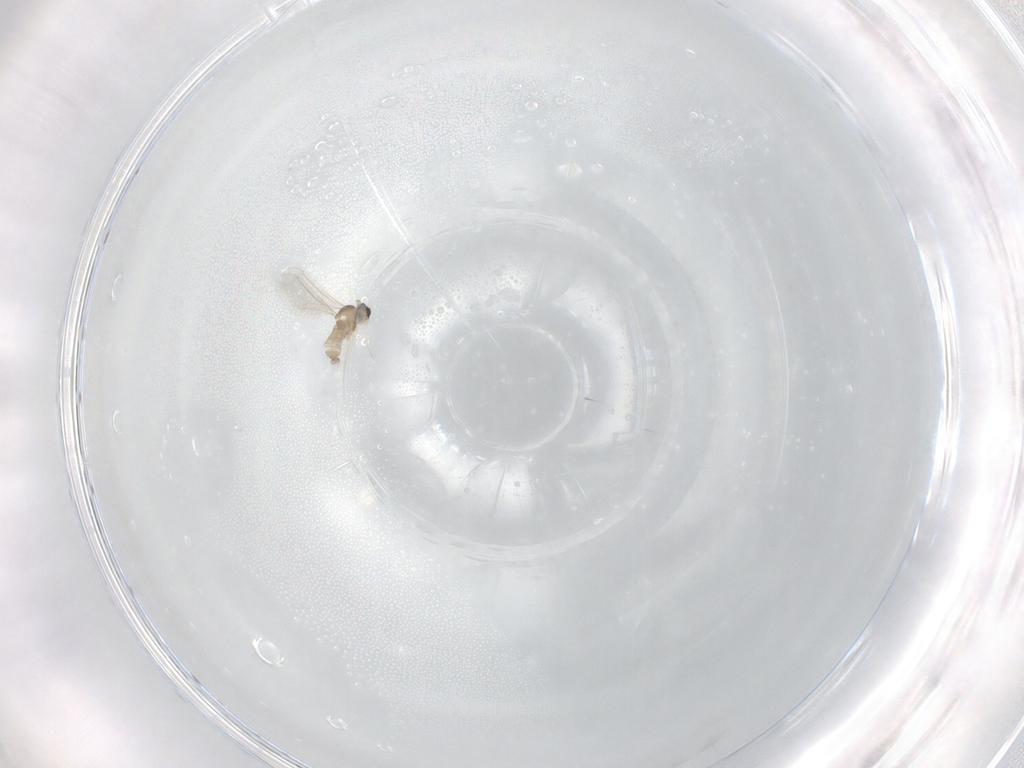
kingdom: Animalia
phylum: Arthropoda
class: Insecta
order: Diptera
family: Cecidomyiidae
